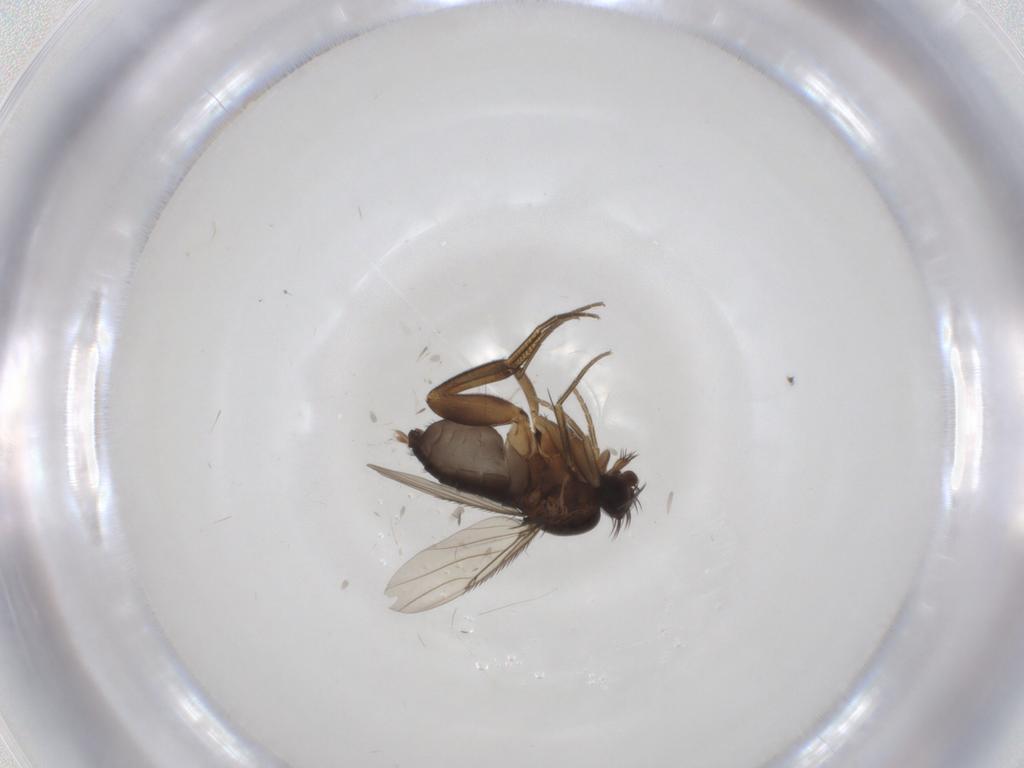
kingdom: Animalia
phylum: Arthropoda
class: Insecta
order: Diptera
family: Phoridae
